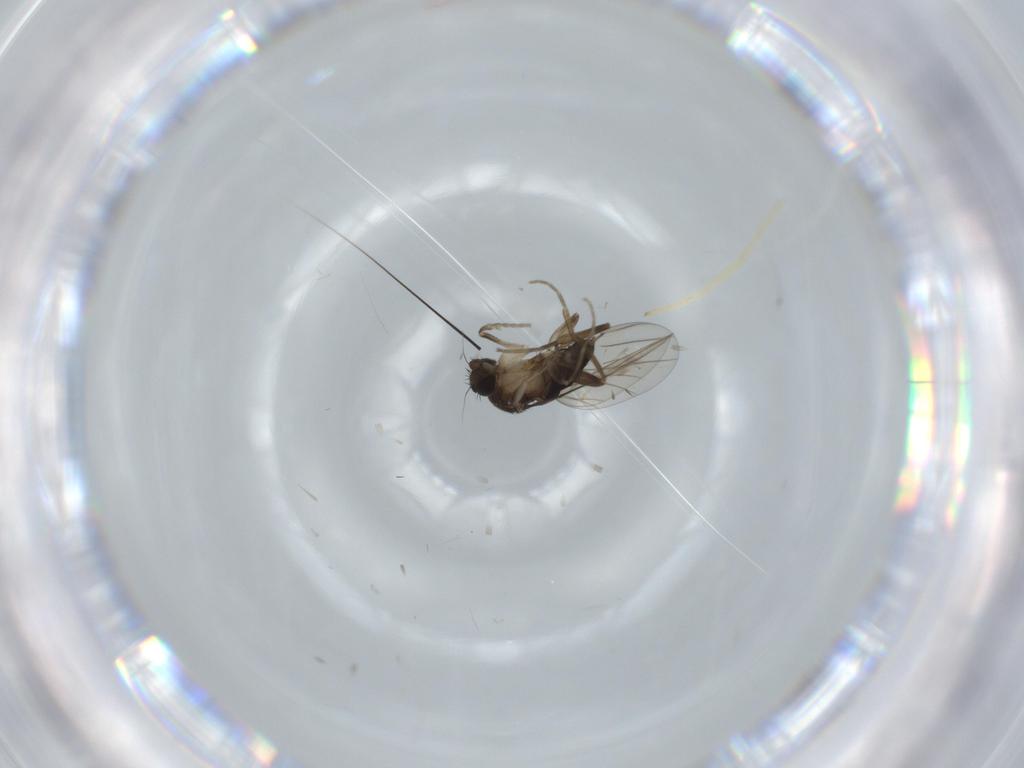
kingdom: Animalia
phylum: Arthropoda
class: Insecta
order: Diptera
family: Phoridae
